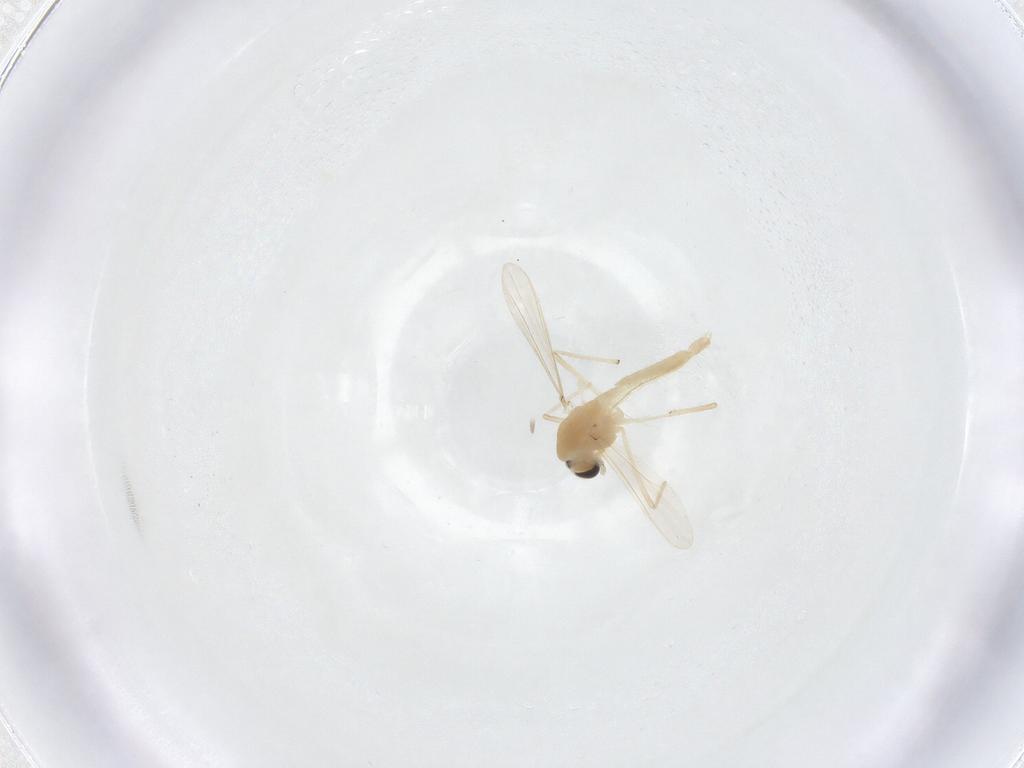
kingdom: Animalia
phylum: Arthropoda
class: Insecta
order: Diptera
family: Chironomidae
